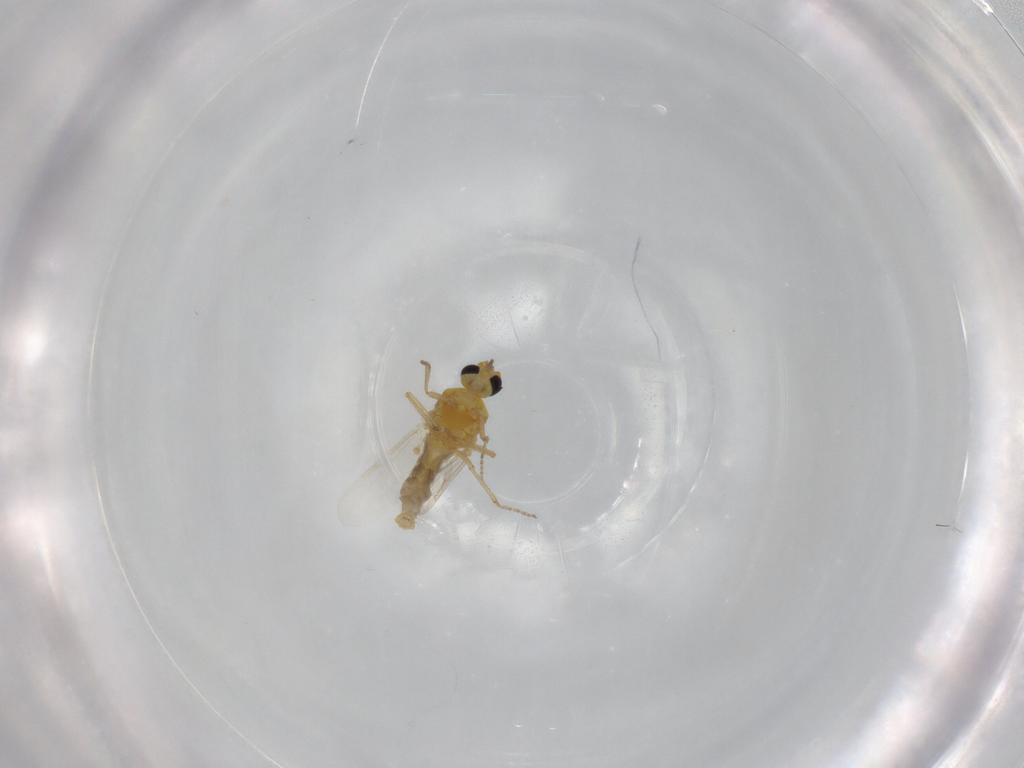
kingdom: Animalia
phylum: Arthropoda
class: Insecta
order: Diptera
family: Ceratopogonidae
